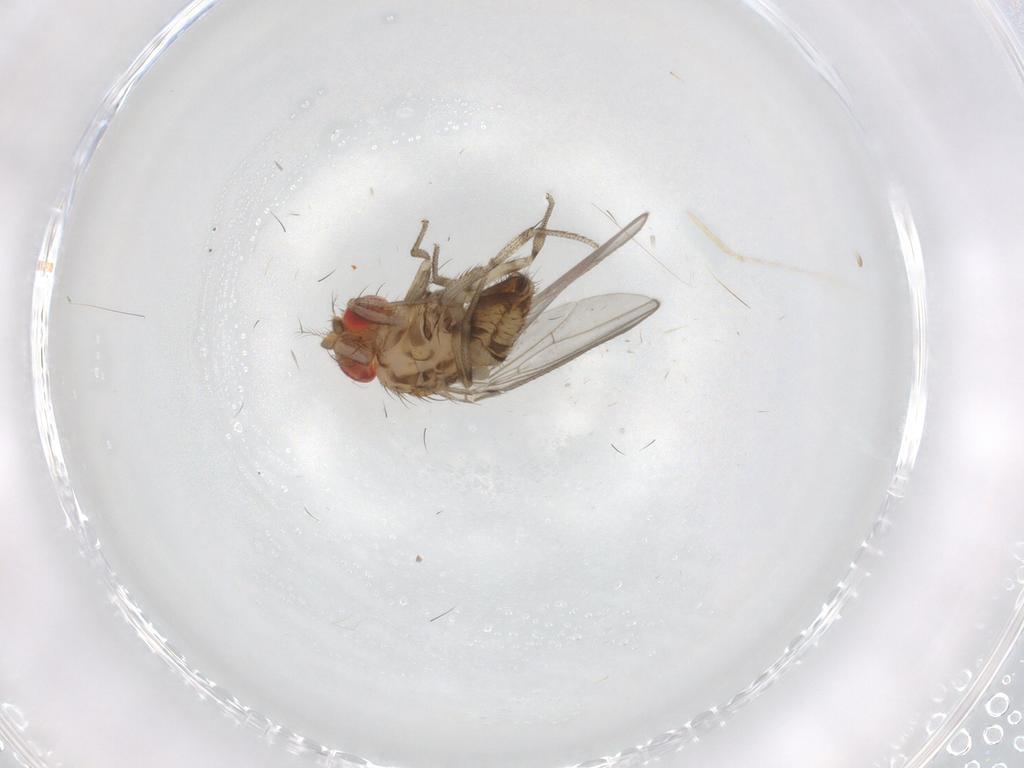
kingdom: Animalia
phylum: Arthropoda
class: Insecta
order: Diptera
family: Drosophilidae
